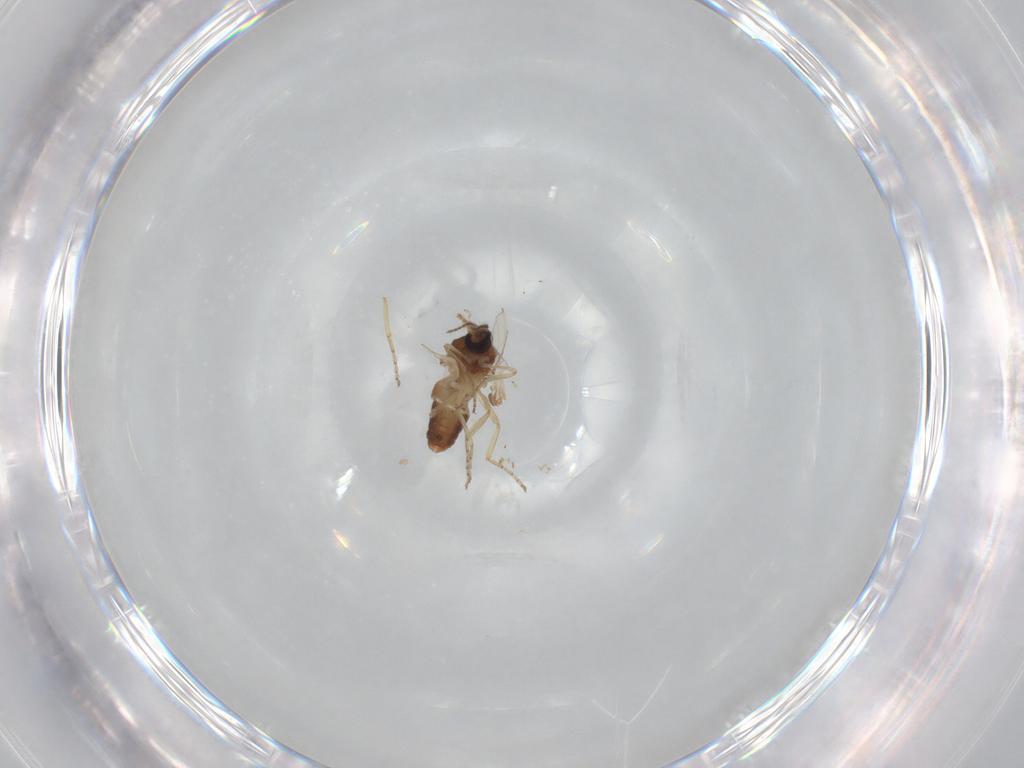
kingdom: Animalia
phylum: Arthropoda
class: Insecta
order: Diptera
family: Ceratopogonidae
